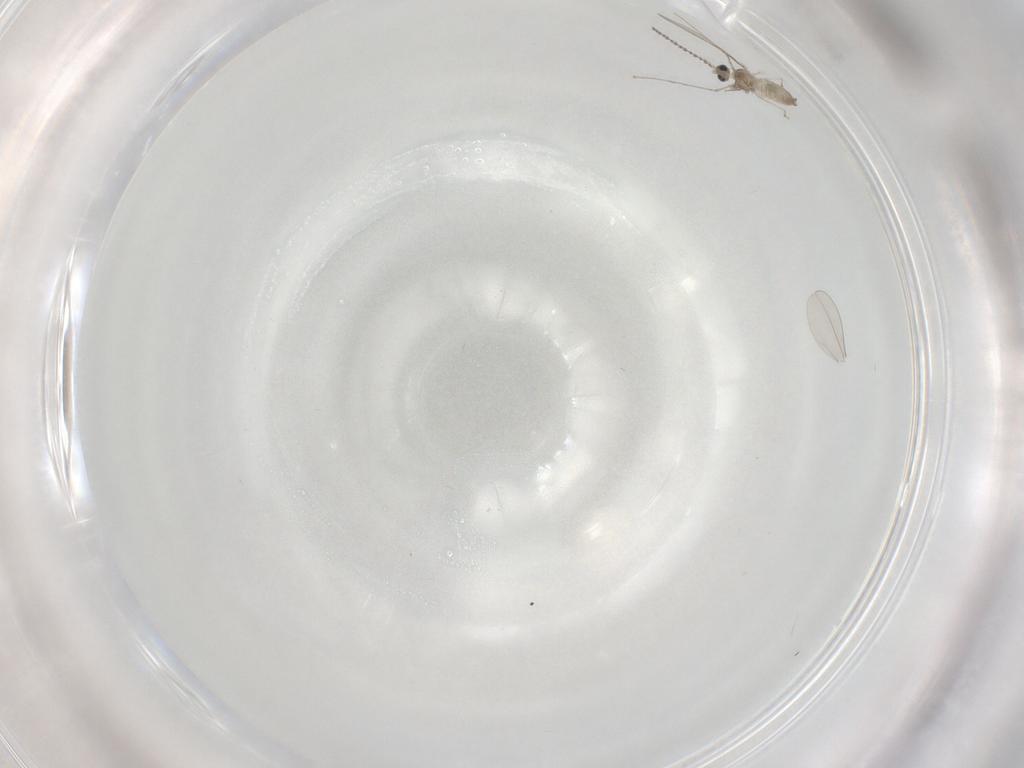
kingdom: Animalia
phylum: Arthropoda
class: Insecta
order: Diptera
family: Cecidomyiidae
